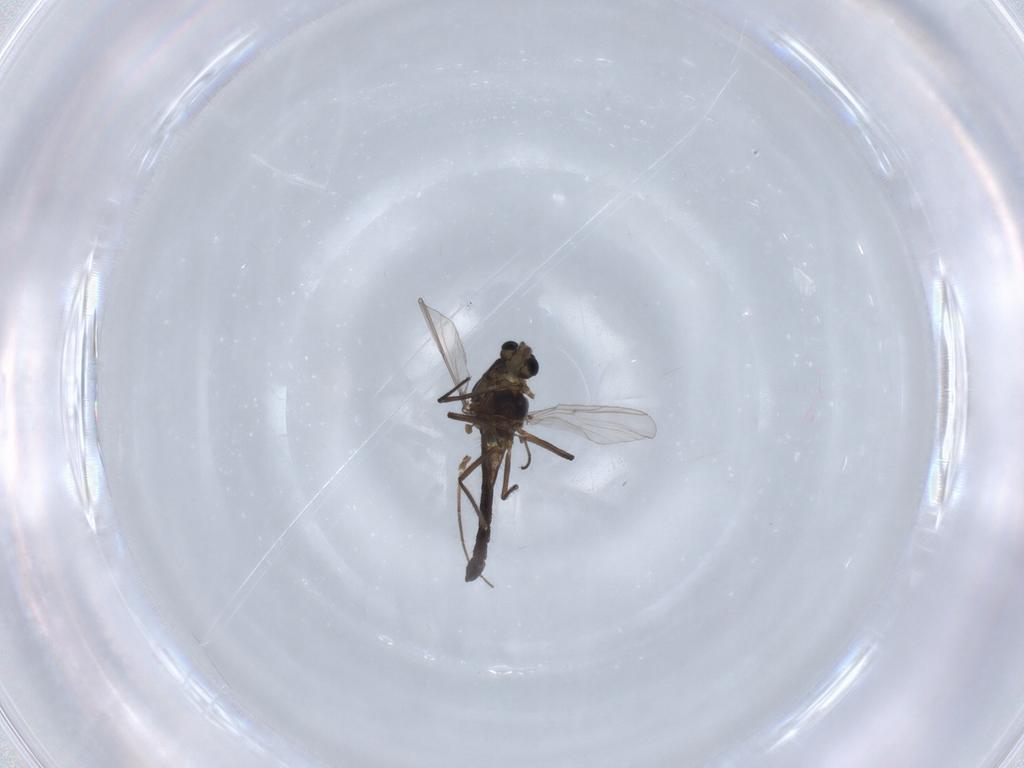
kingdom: Animalia
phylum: Arthropoda
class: Insecta
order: Diptera
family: Chironomidae
